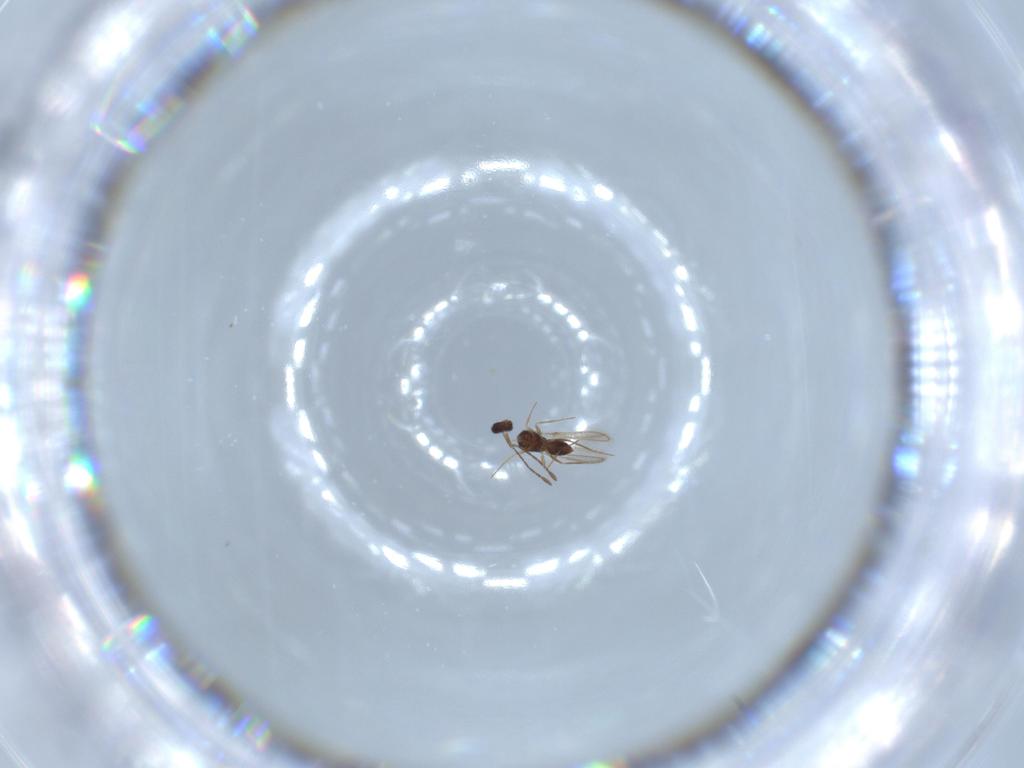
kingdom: Animalia
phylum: Arthropoda
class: Insecta
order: Hymenoptera
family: Mymaridae
